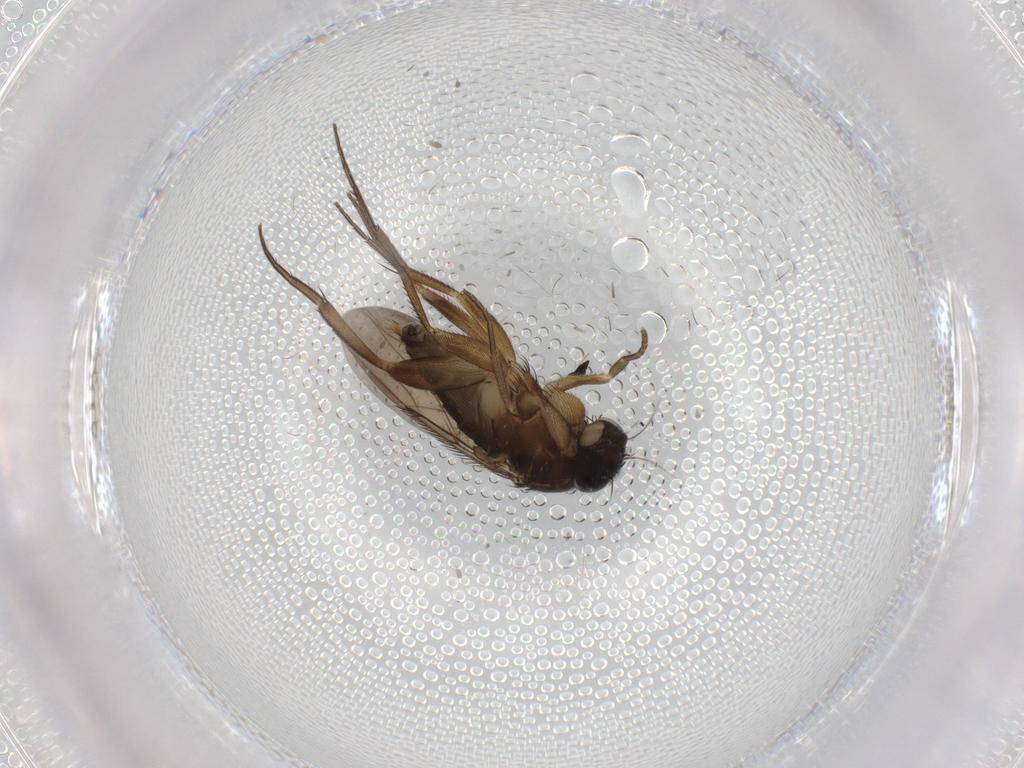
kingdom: Animalia
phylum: Arthropoda
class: Insecta
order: Diptera
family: Phoridae
